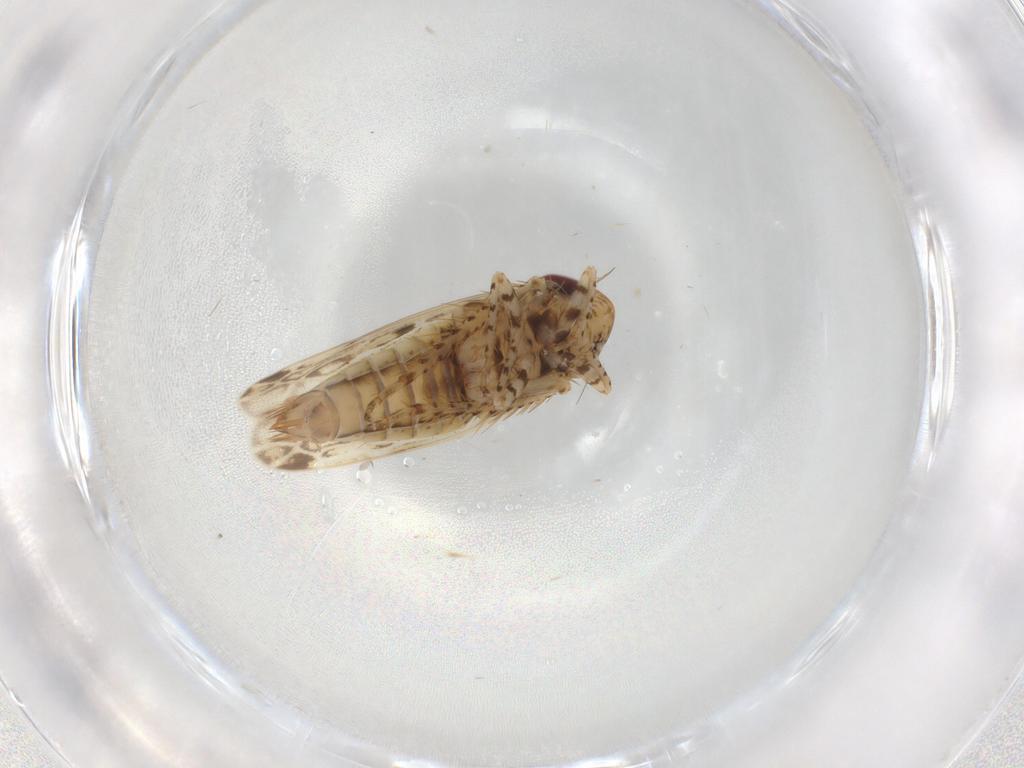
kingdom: Animalia
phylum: Arthropoda
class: Insecta
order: Hemiptera
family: Cicadellidae
